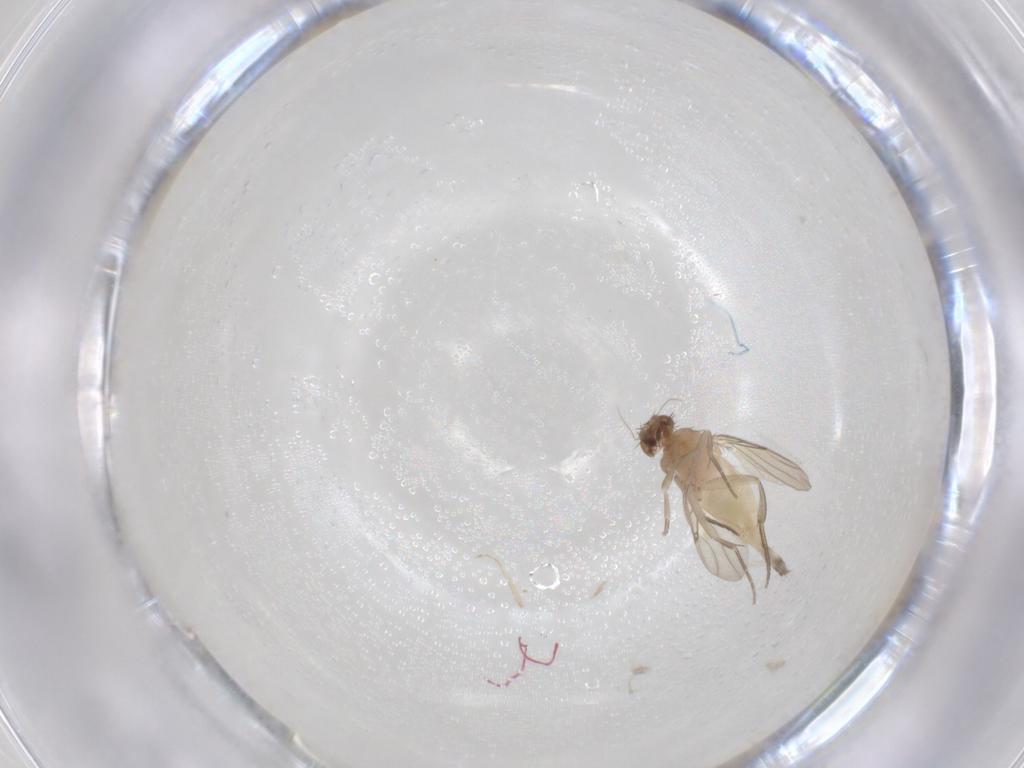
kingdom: Animalia
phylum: Arthropoda
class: Insecta
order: Diptera
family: Phoridae
